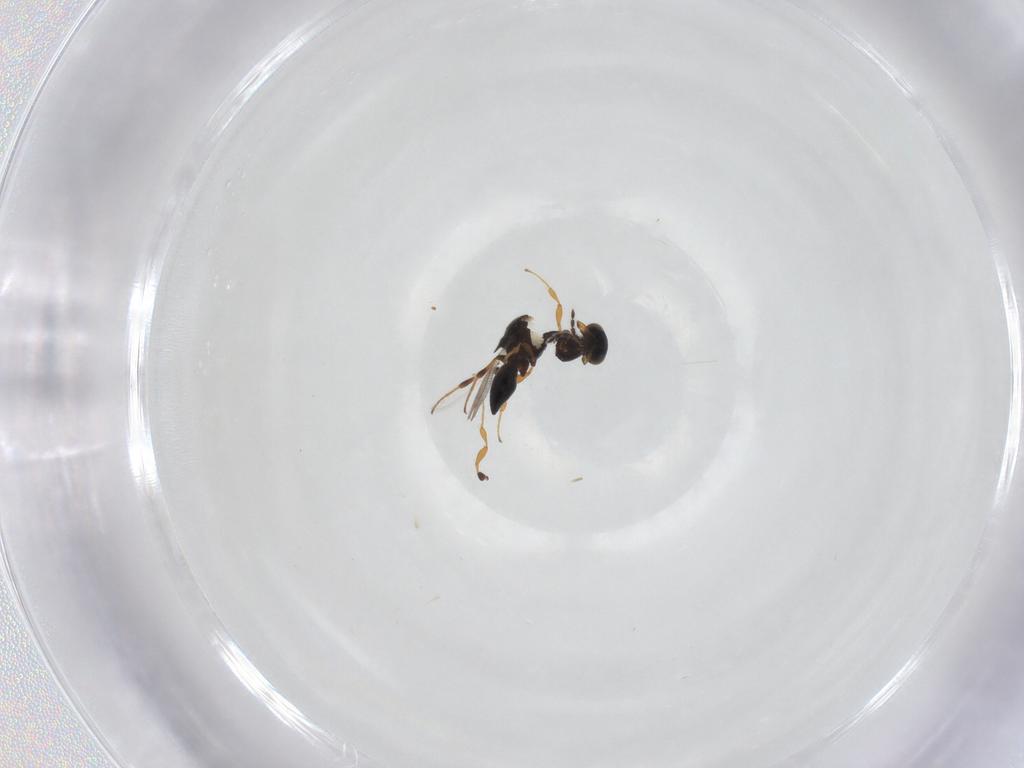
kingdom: Animalia
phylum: Arthropoda
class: Insecta
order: Hymenoptera
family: Platygastridae
